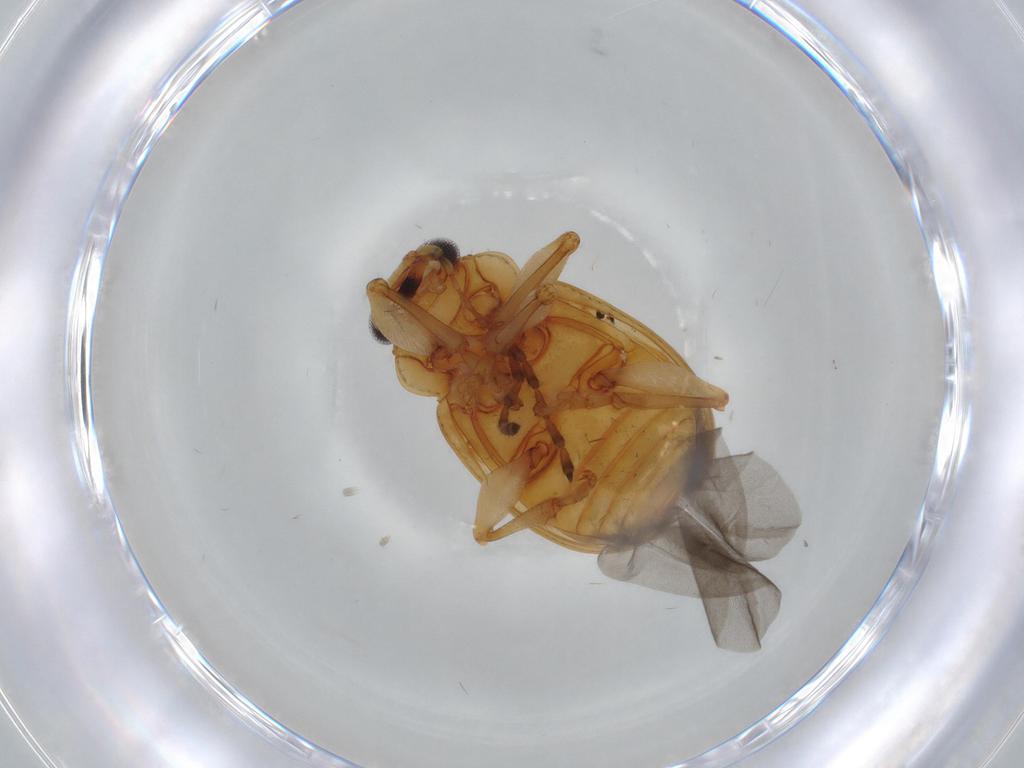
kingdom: Animalia
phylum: Arthropoda
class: Insecta
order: Coleoptera
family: Chrysomelidae
